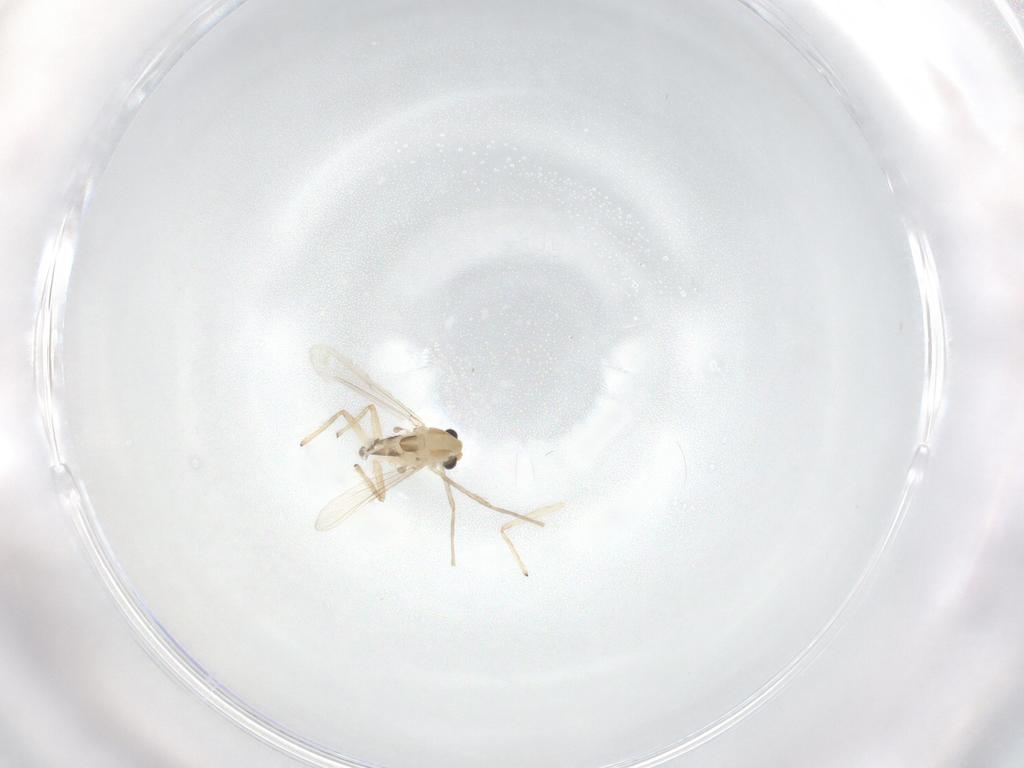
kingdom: Animalia
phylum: Arthropoda
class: Insecta
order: Diptera
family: Chironomidae
